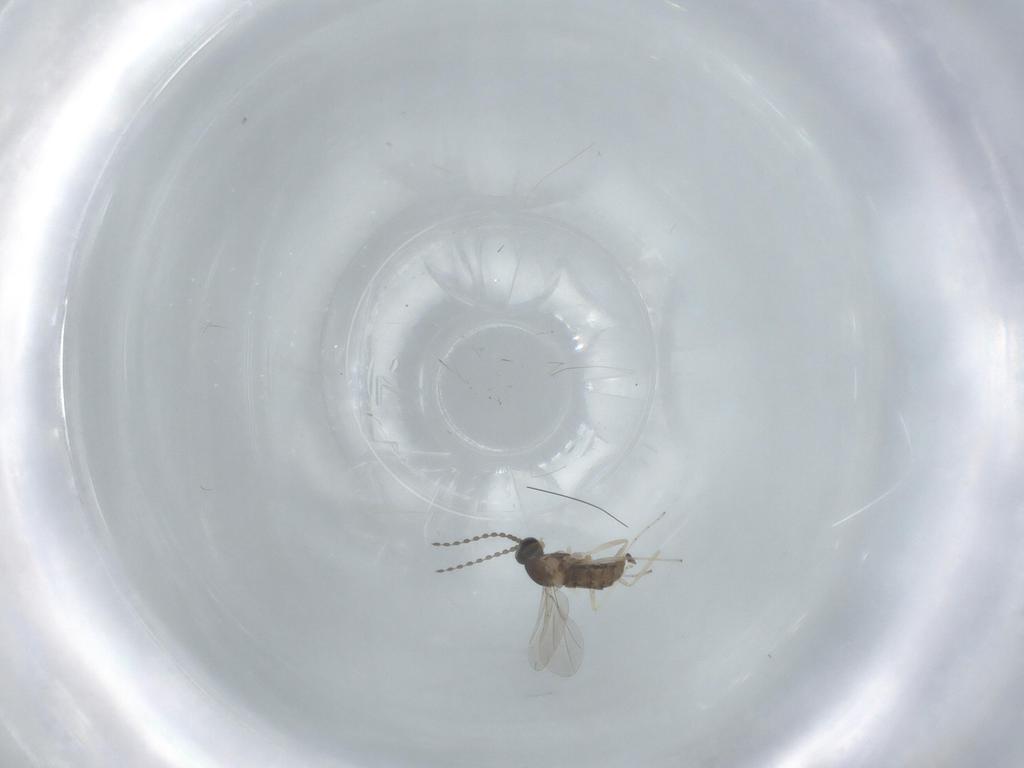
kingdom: Animalia
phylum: Arthropoda
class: Insecta
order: Diptera
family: Cecidomyiidae
